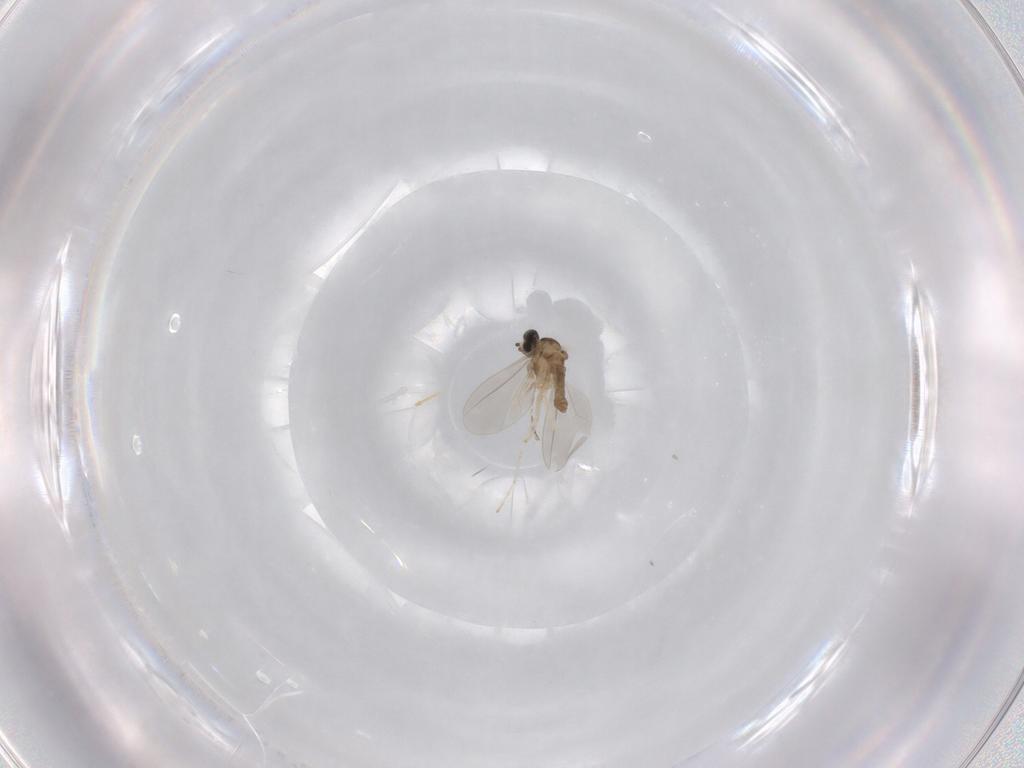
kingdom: Animalia
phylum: Arthropoda
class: Insecta
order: Diptera
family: Cecidomyiidae
